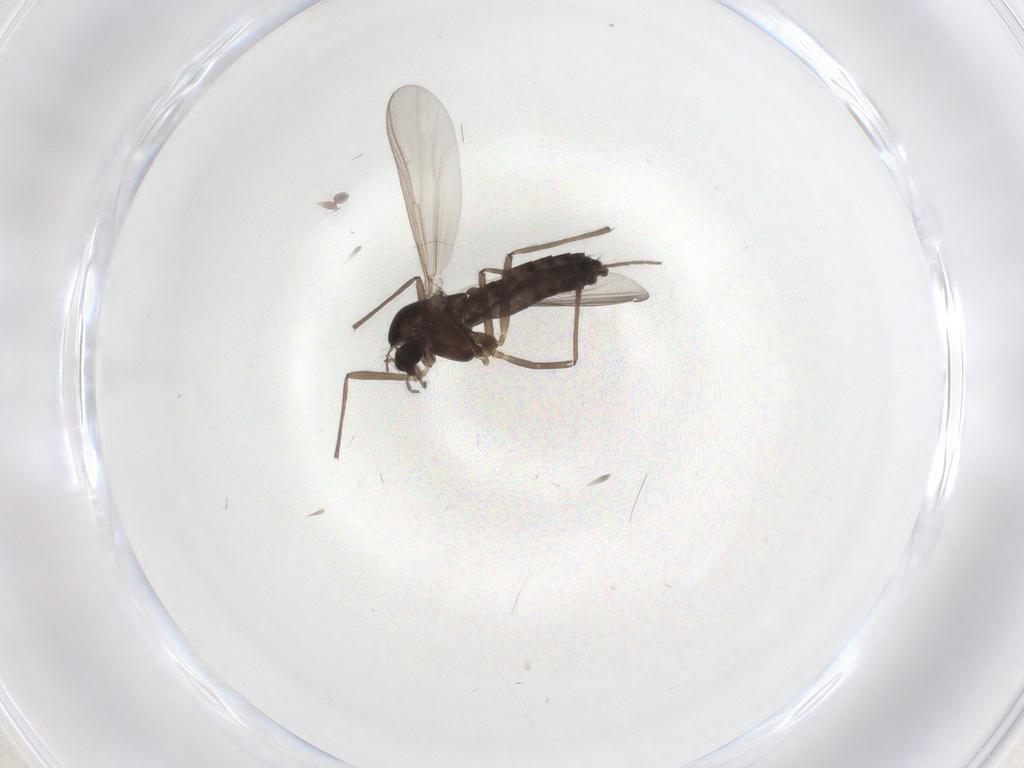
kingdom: Animalia
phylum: Arthropoda
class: Insecta
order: Diptera
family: Chironomidae
